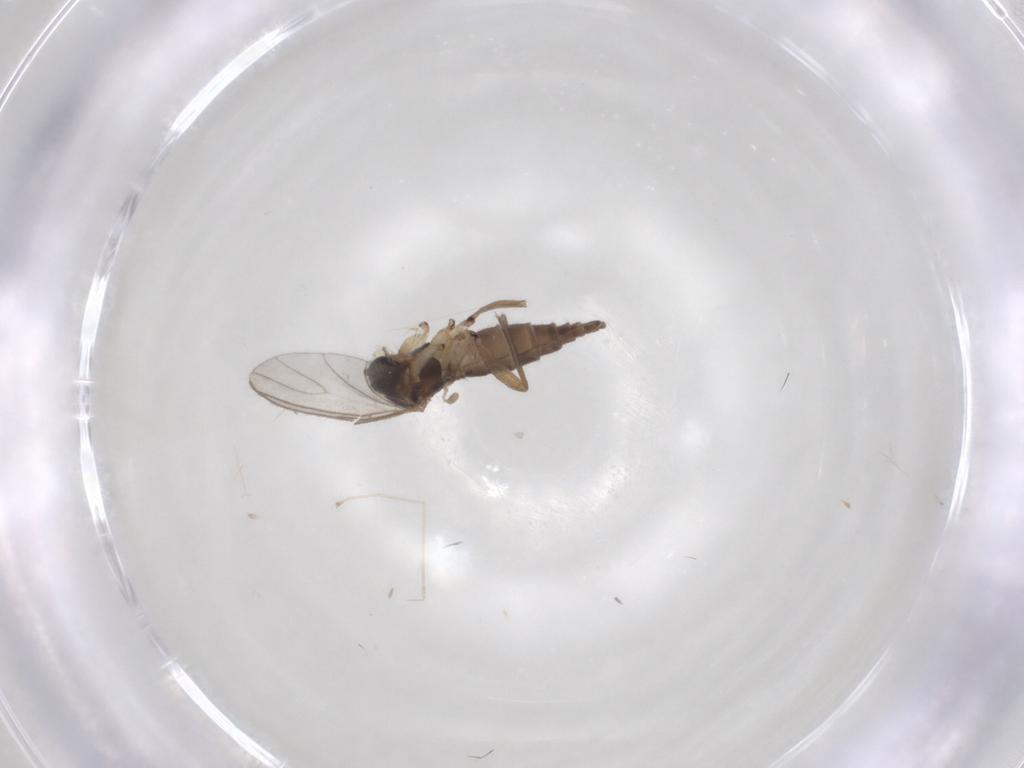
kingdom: Animalia
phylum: Arthropoda
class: Insecta
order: Diptera
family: Cecidomyiidae
